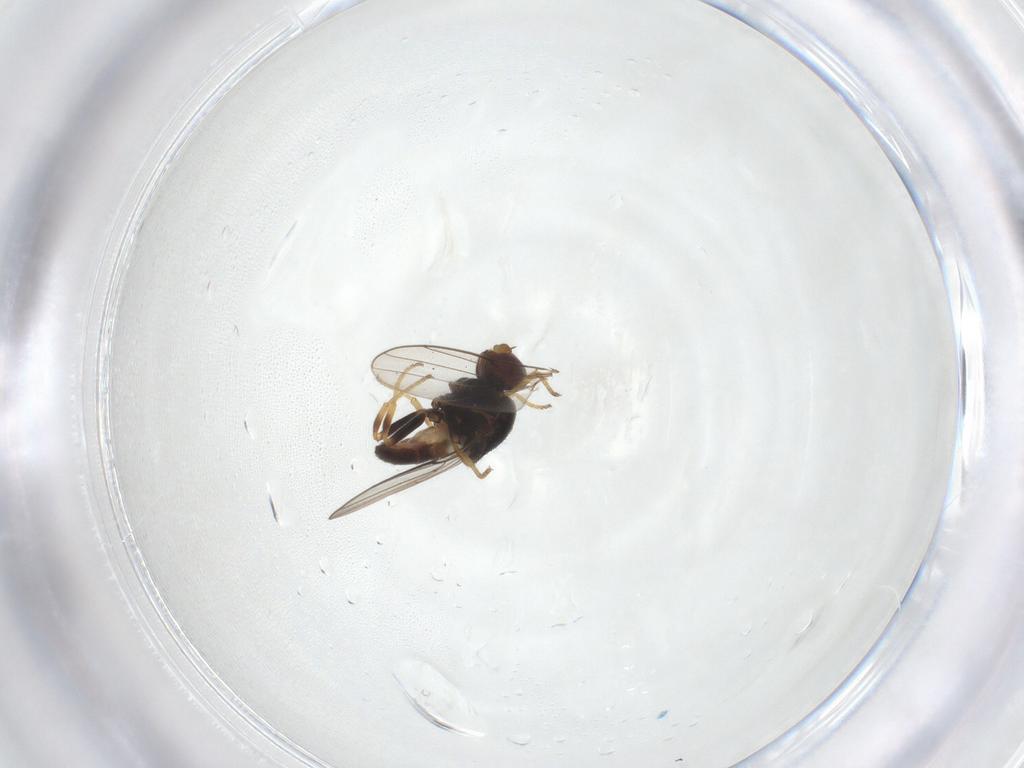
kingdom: Animalia
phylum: Arthropoda
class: Insecta
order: Diptera
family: Chloropidae
